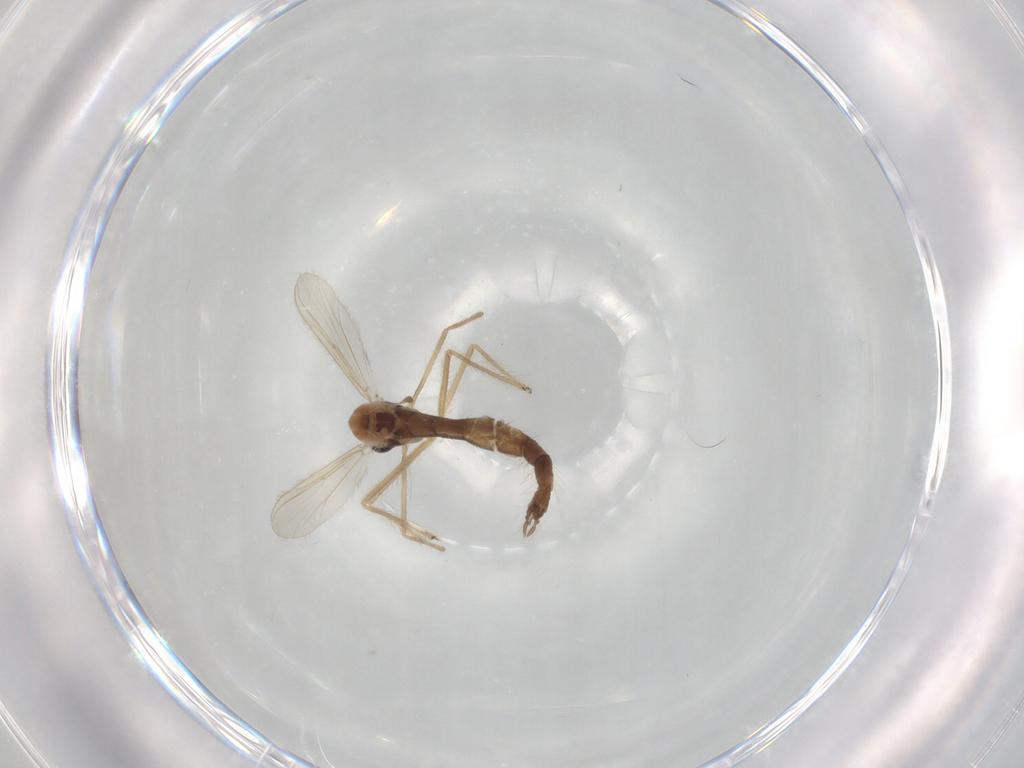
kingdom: Animalia
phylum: Arthropoda
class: Insecta
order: Diptera
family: Chironomidae
